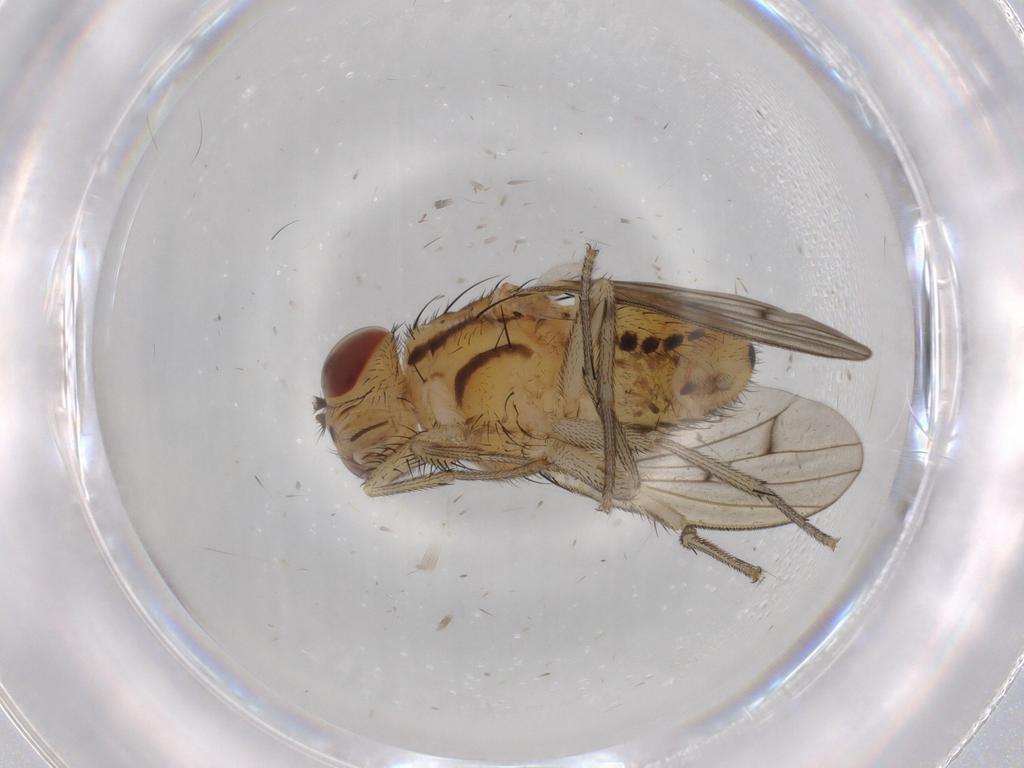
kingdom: Animalia
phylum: Arthropoda
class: Insecta
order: Diptera
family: Lauxaniidae
